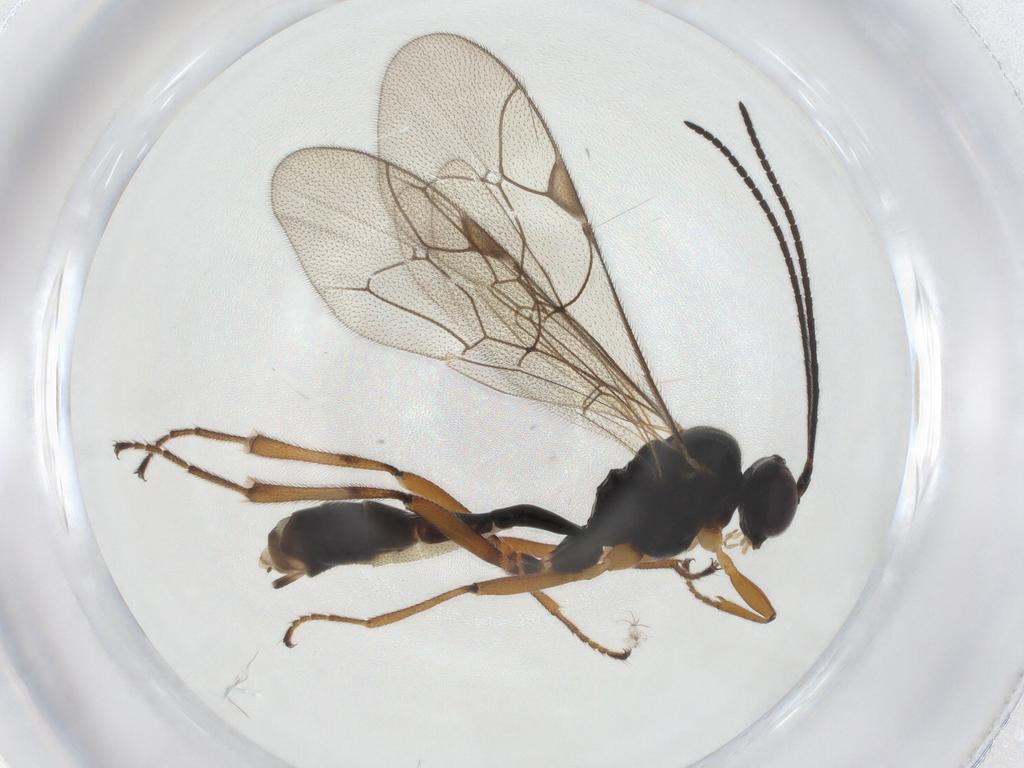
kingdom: Animalia
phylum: Arthropoda
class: Insecta
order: Hymenoptera
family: Ichneumonidae
